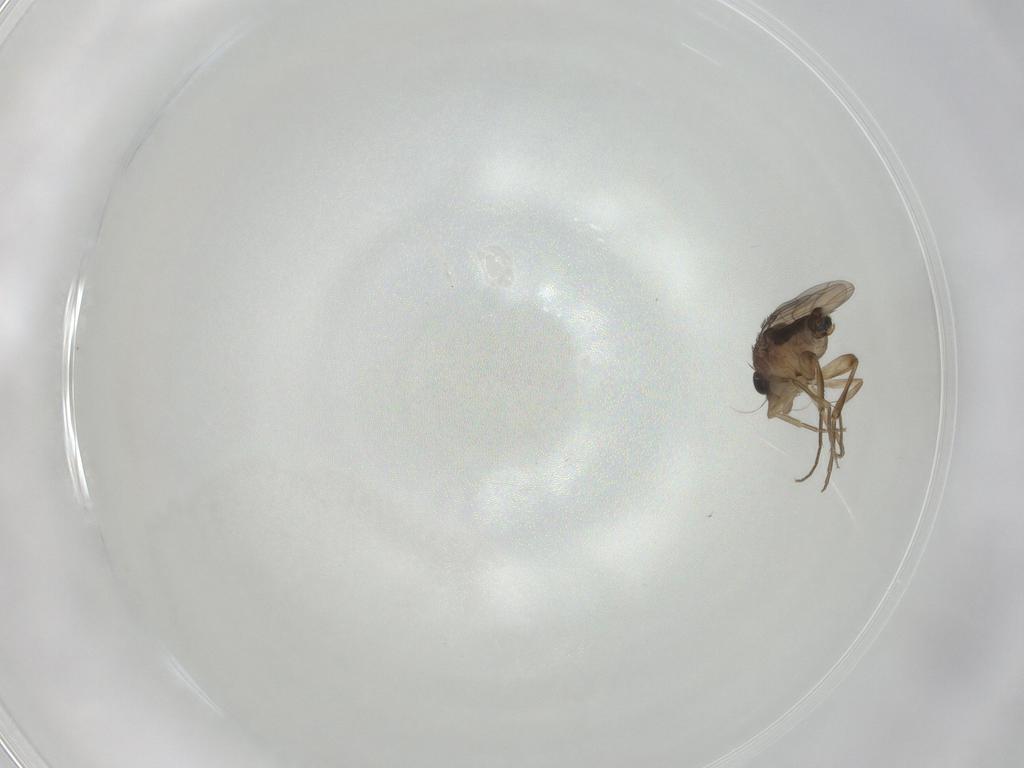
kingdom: Animalia
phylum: Arthropoda
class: Insecta
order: Diptera
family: Phoridae
